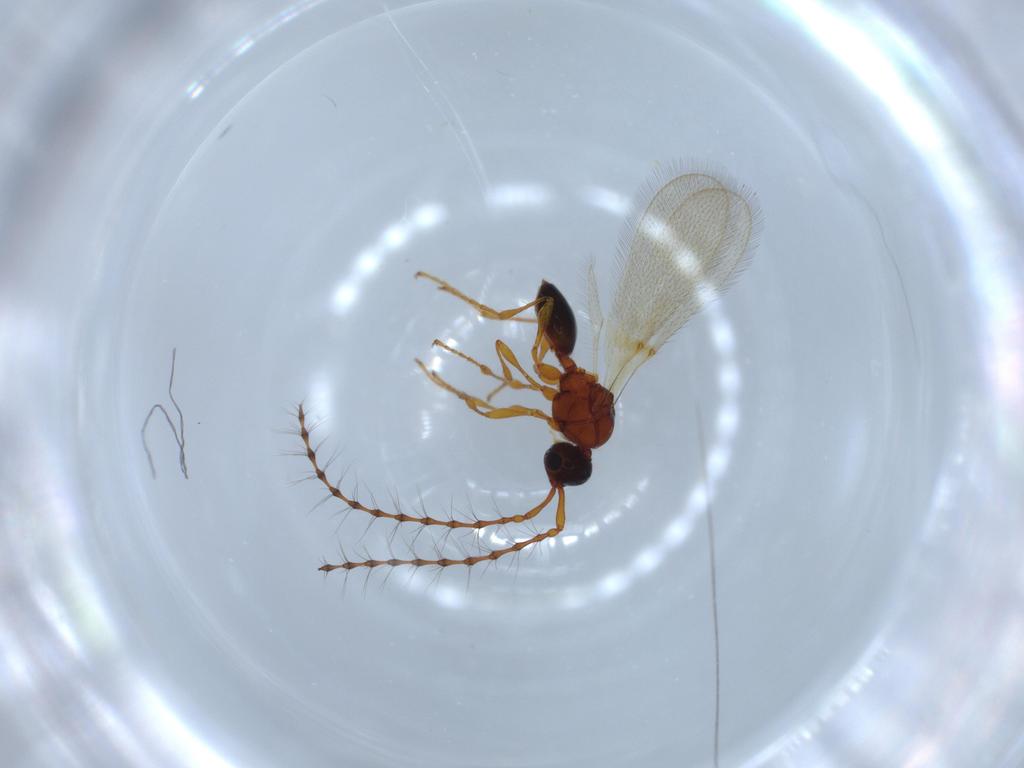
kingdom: Animalia
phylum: Arthropoda
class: Insecta
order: Hymenoptera
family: Diapriidae
